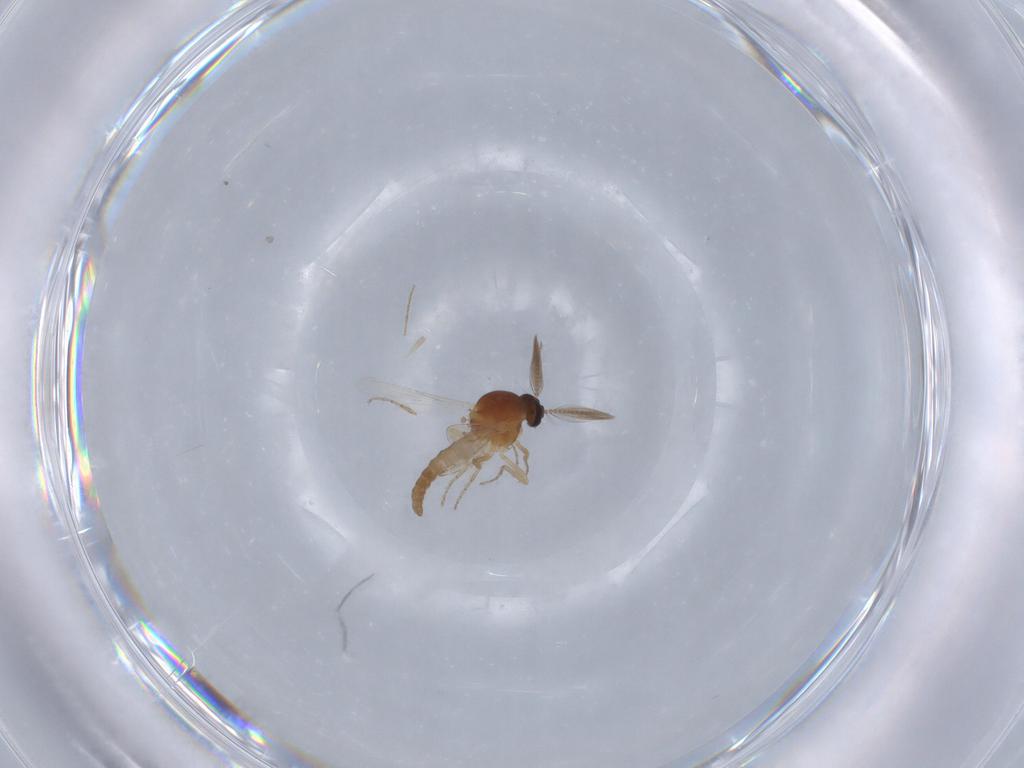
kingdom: Animalia
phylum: Arthropoda
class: Insecta
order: Diptera
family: Ceratopogonidae
